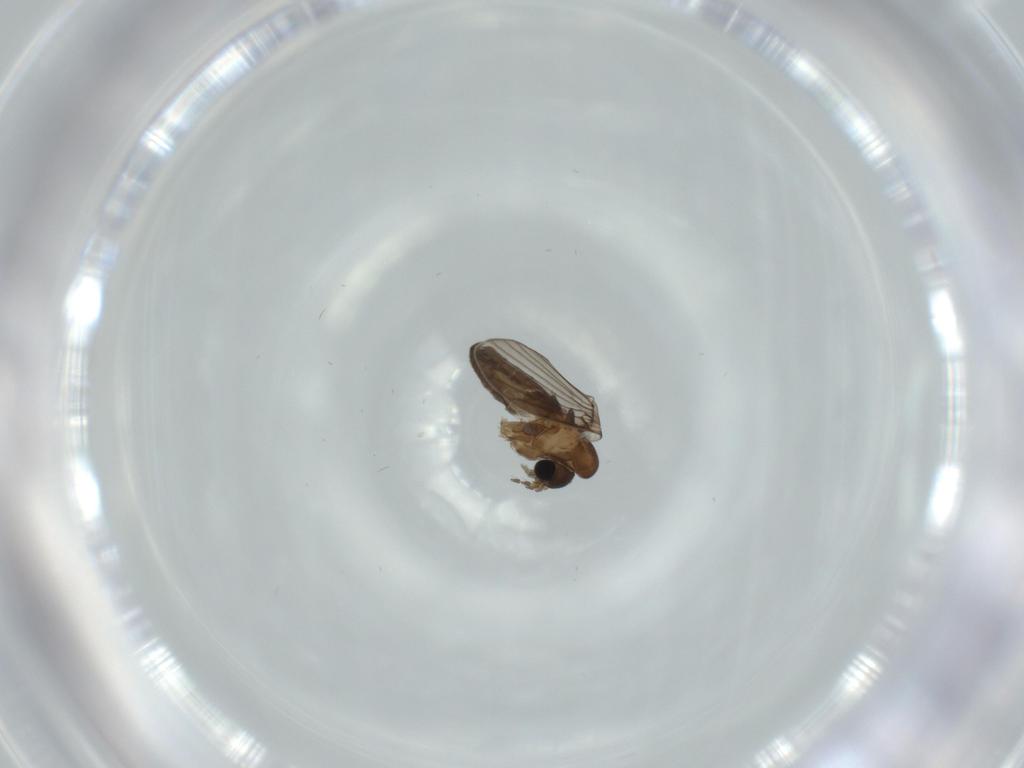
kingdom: Animalia
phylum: Arthropoda
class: Insecta
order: Diptera
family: Sciaridae
